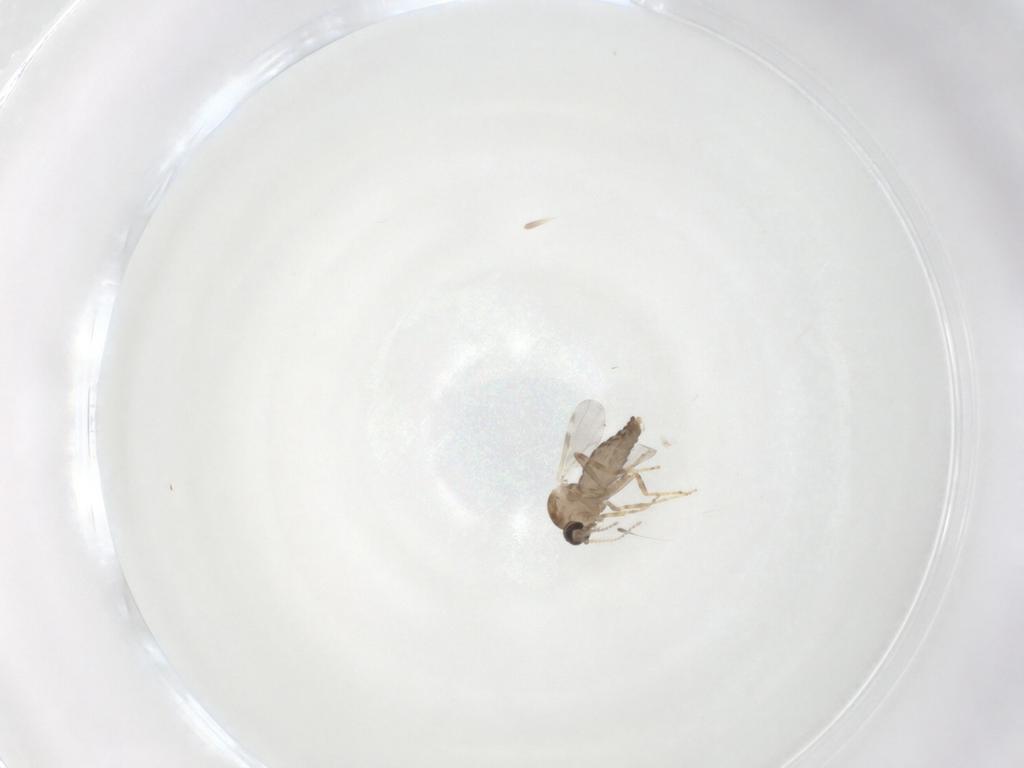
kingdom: Animalia
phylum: Arthropoda
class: Insecta
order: Diptera
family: Ceratopogonidae
